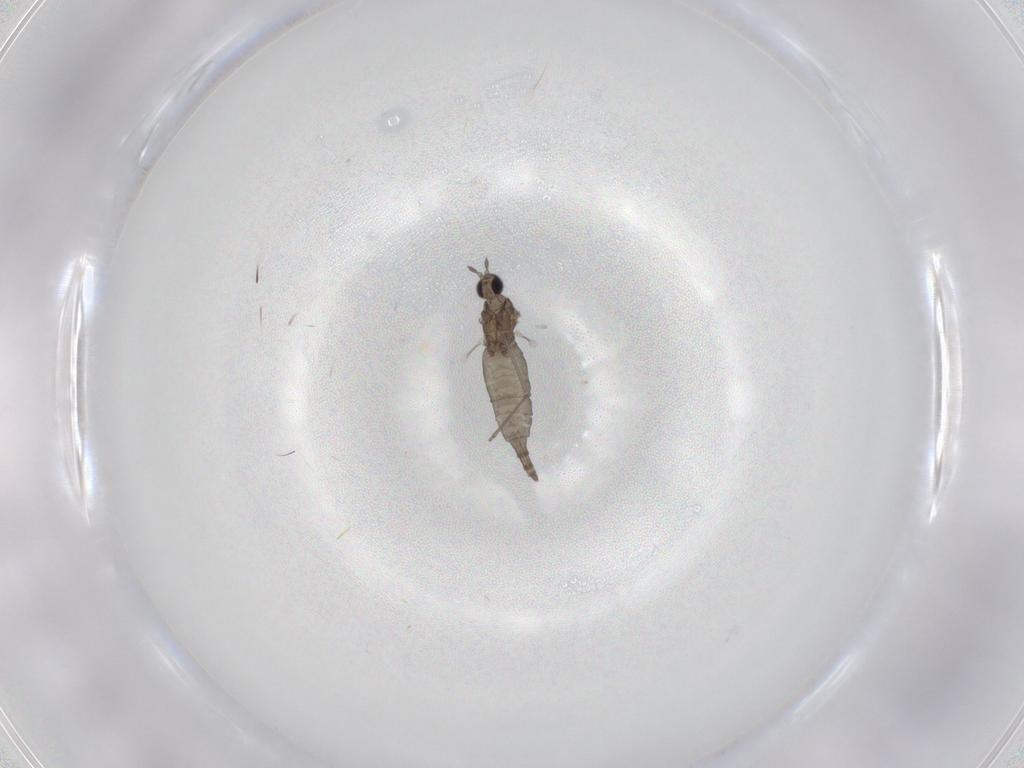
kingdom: Animalia
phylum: Arthropoda
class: Insecta
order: Diptera
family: Cecidomyiidae
